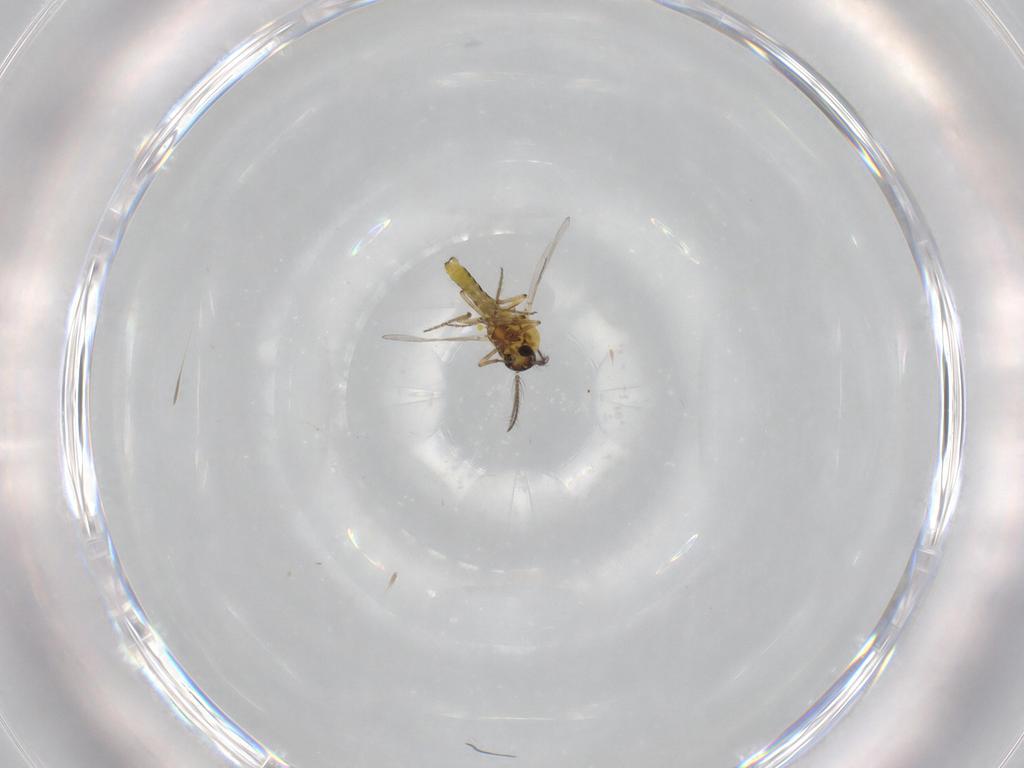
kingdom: Animalia
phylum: Arthropoda
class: Insecta
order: Diptera
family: Ceratopogonidae
